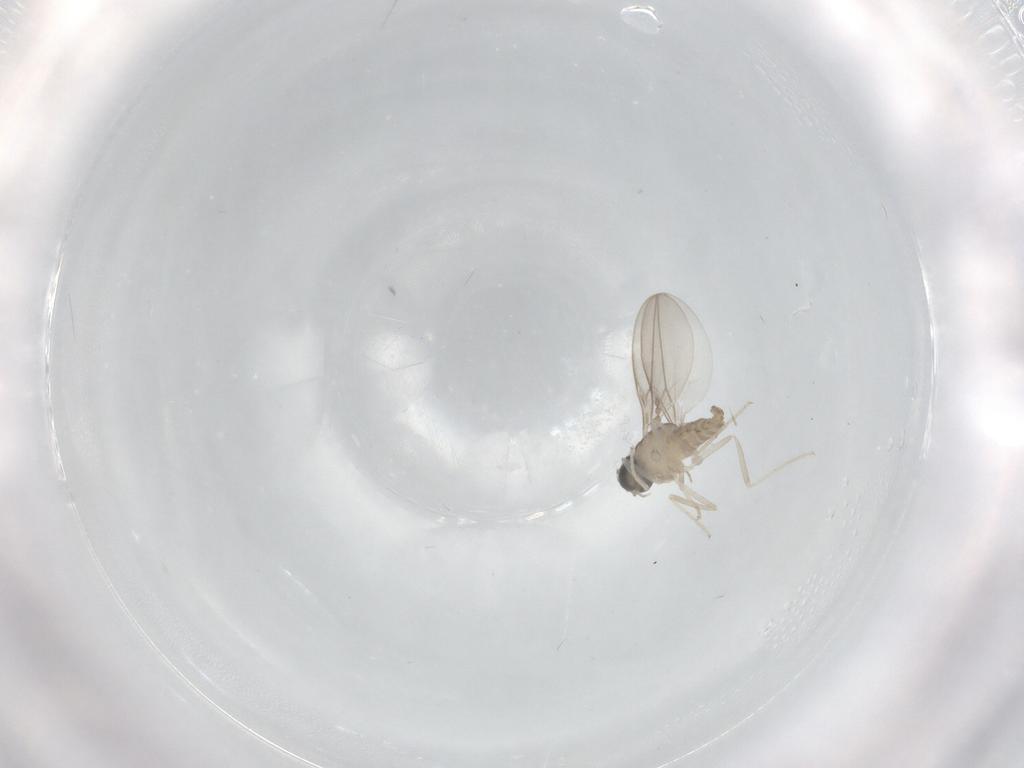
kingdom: Animalia
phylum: Arthropoda
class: Insecta
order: Diptera
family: Cecidomyiidae
